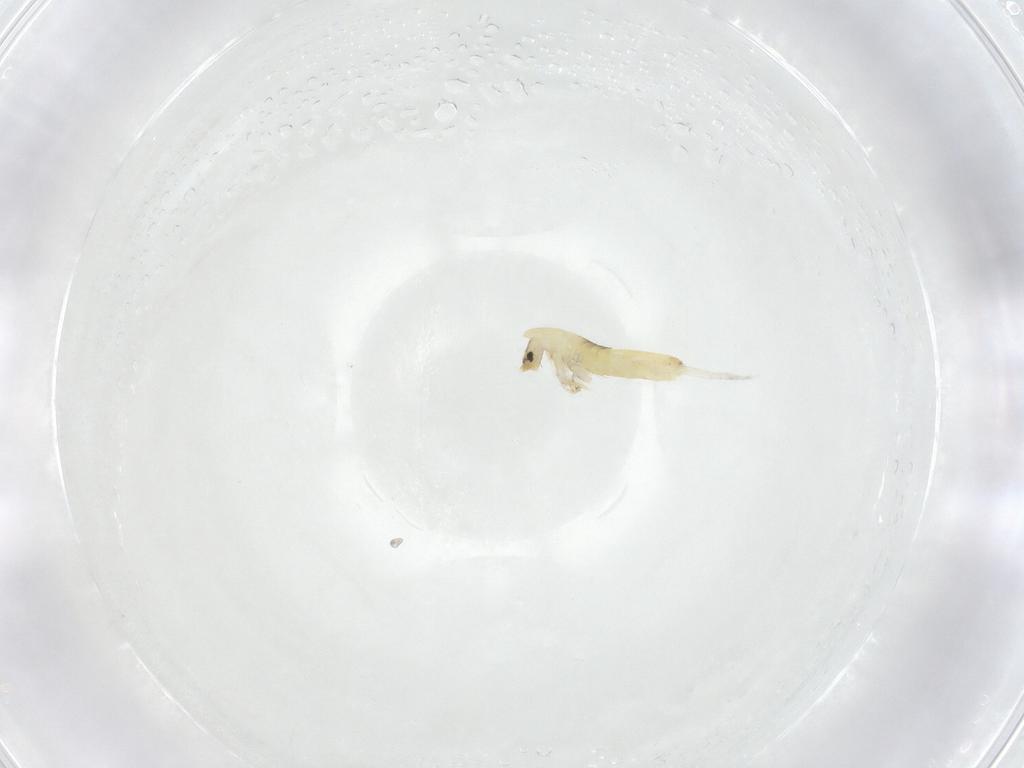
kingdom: Animalia
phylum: Arthropoda
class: Collembola
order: Entomobryomorpha
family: Entomobryidae
